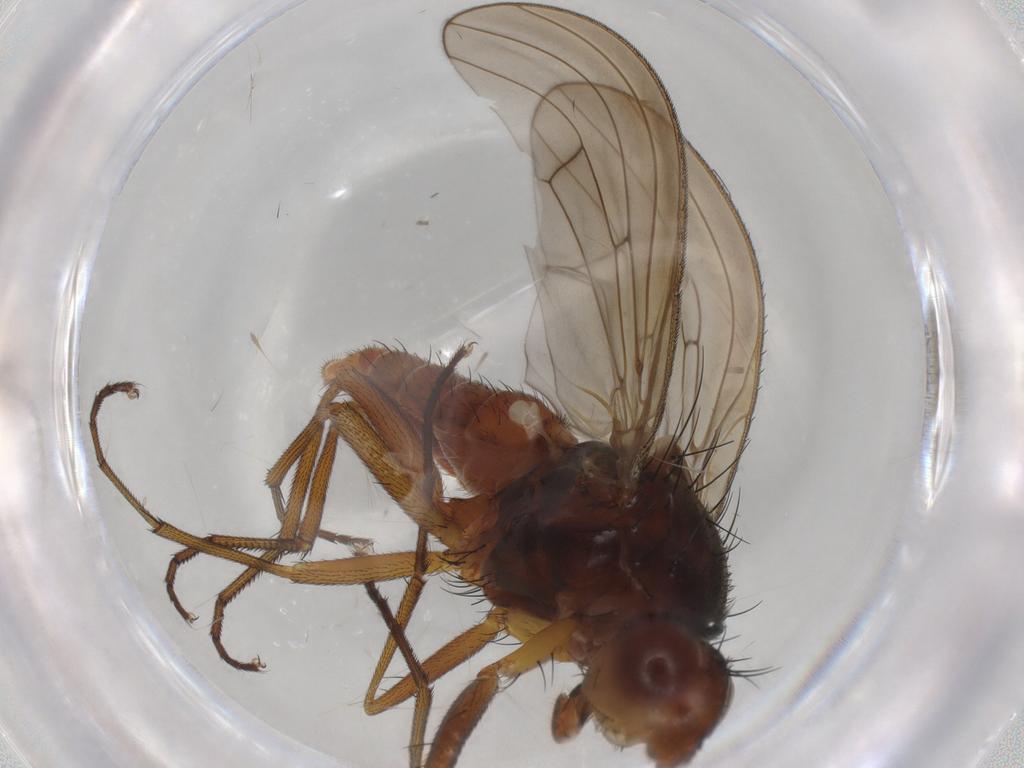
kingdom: Animalia
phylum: Arthropoda
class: Insecta
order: Diptera
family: Heleomyzidae
